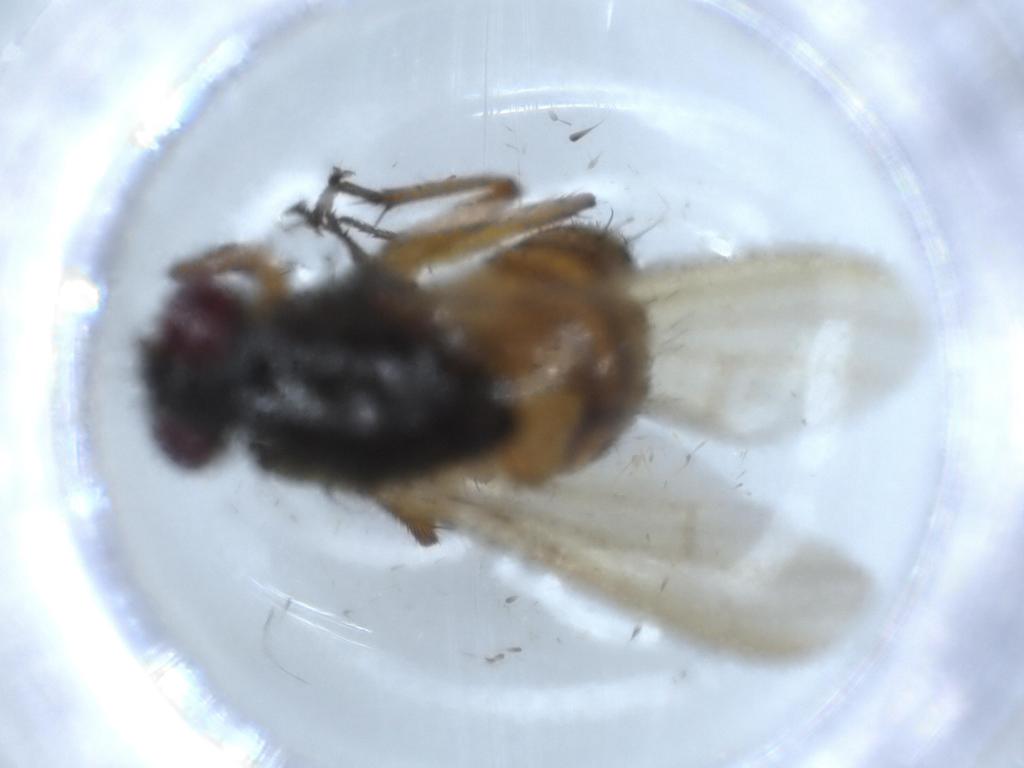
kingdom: Animalia
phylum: Arthropoda
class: Insecta
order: Diptera
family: Muscidae
